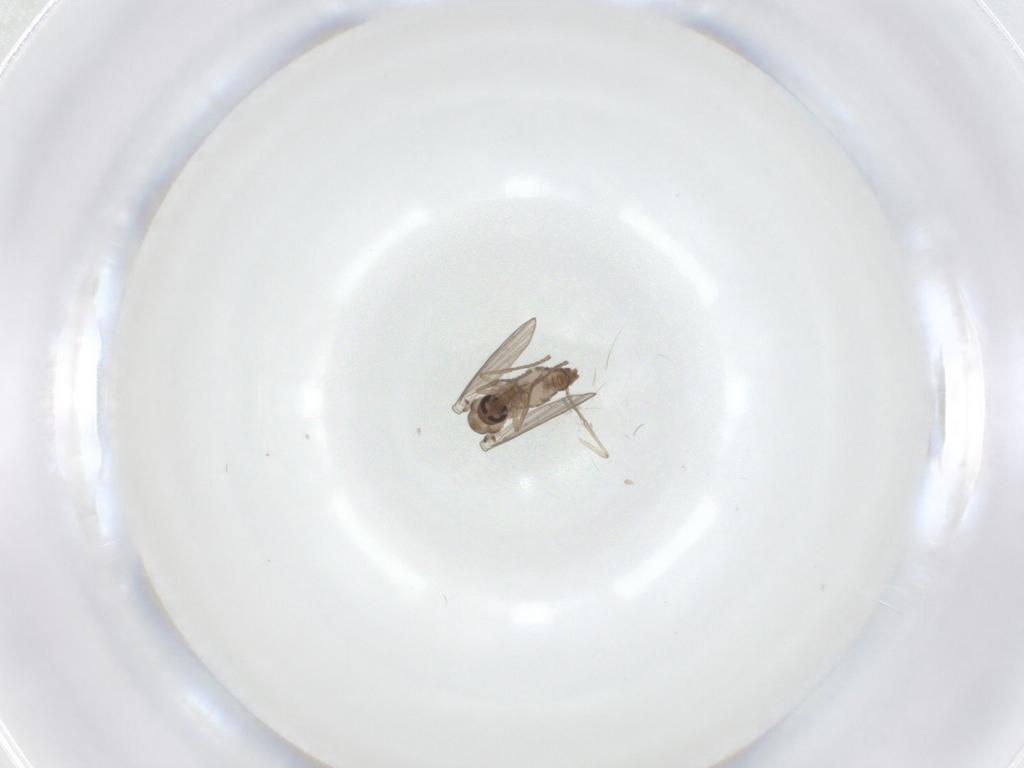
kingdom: Animalia
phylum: Arthropoda
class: Insecta
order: Diptera
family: Psychodidae
